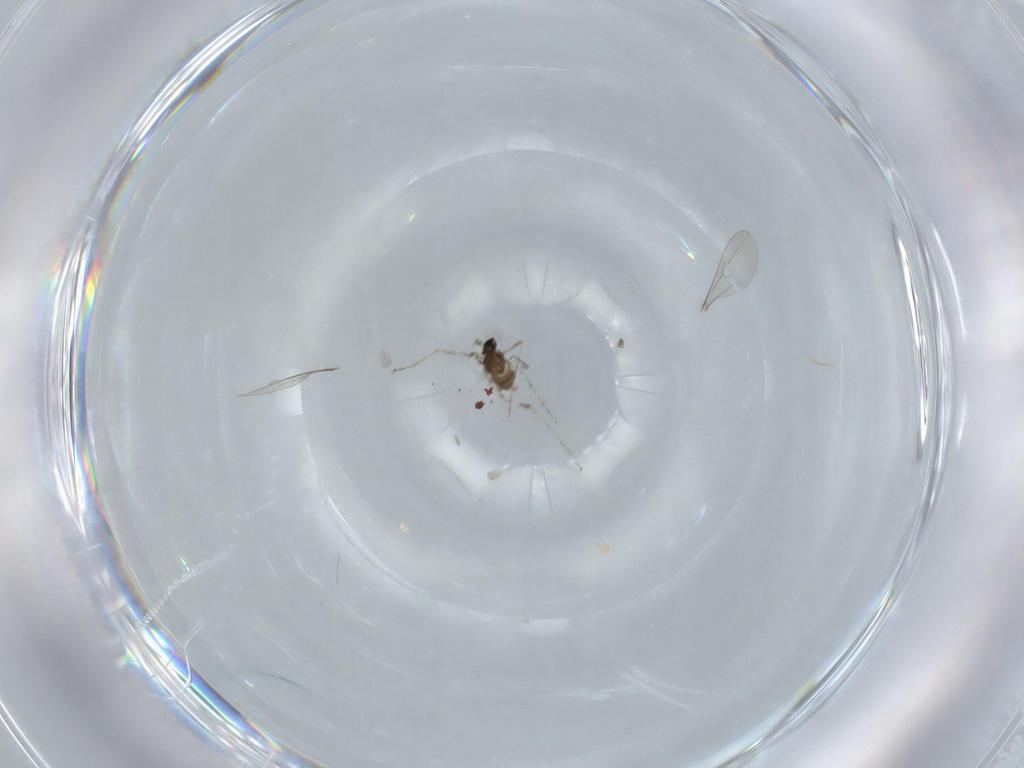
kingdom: Animalia
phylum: Arthropoda
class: Insecta
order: Diptera
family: Cecidomyiidae
